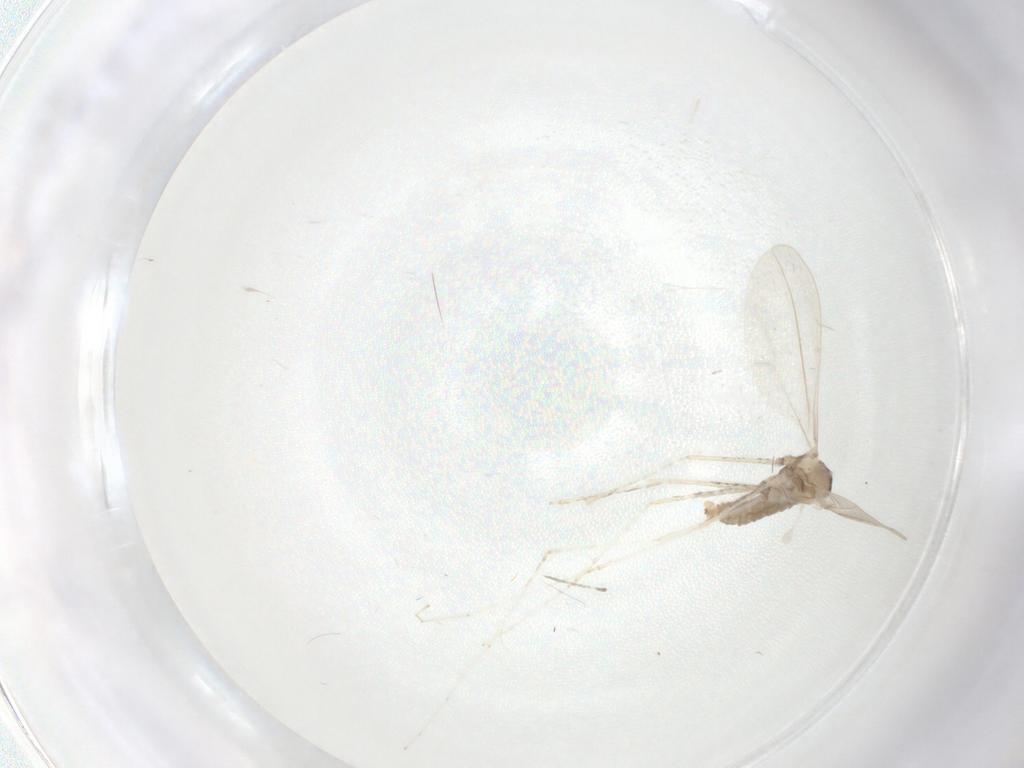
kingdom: Animalia
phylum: Arthropoda
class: Insecta
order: Diptera
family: Cecidomyiidae
